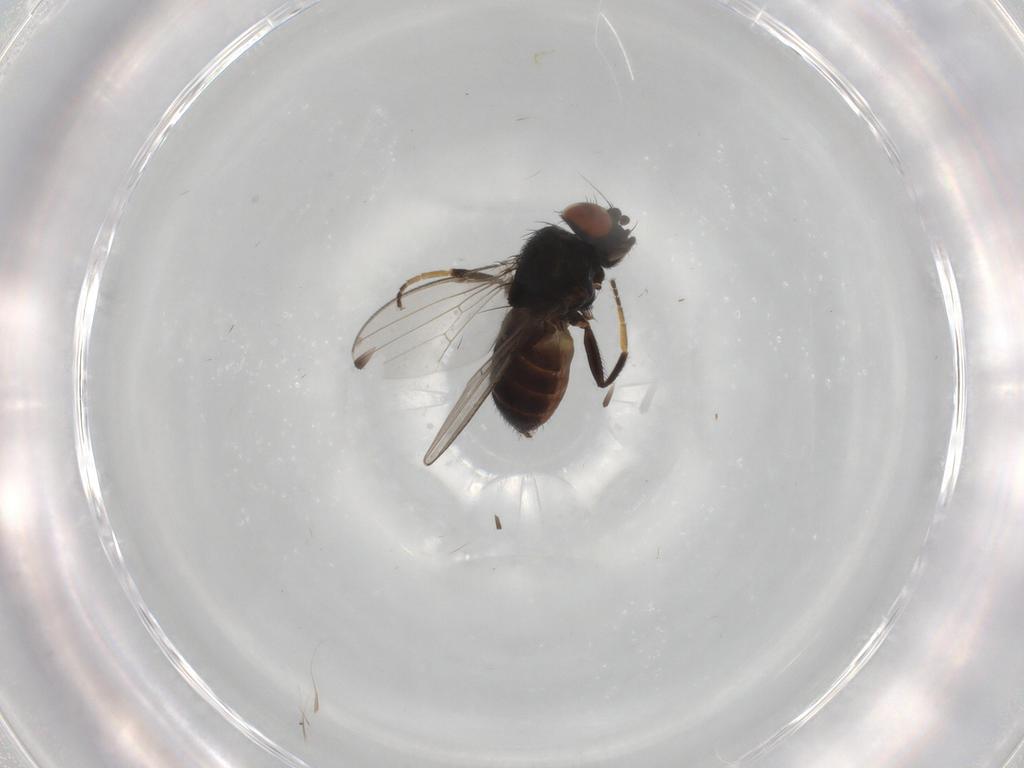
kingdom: Animalia
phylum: Arthropoda
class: Insecta
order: Diptera
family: Milichiidae
